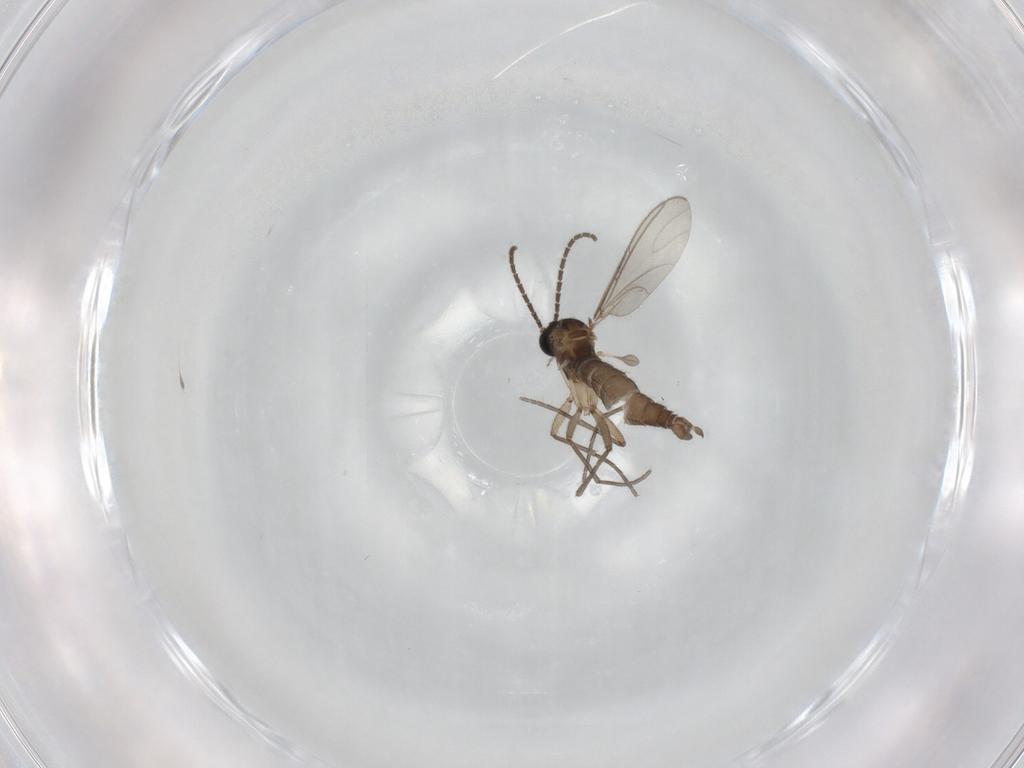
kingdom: Animalia
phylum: Arthropoda
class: Insecta
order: Diptera
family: Sciaridae
